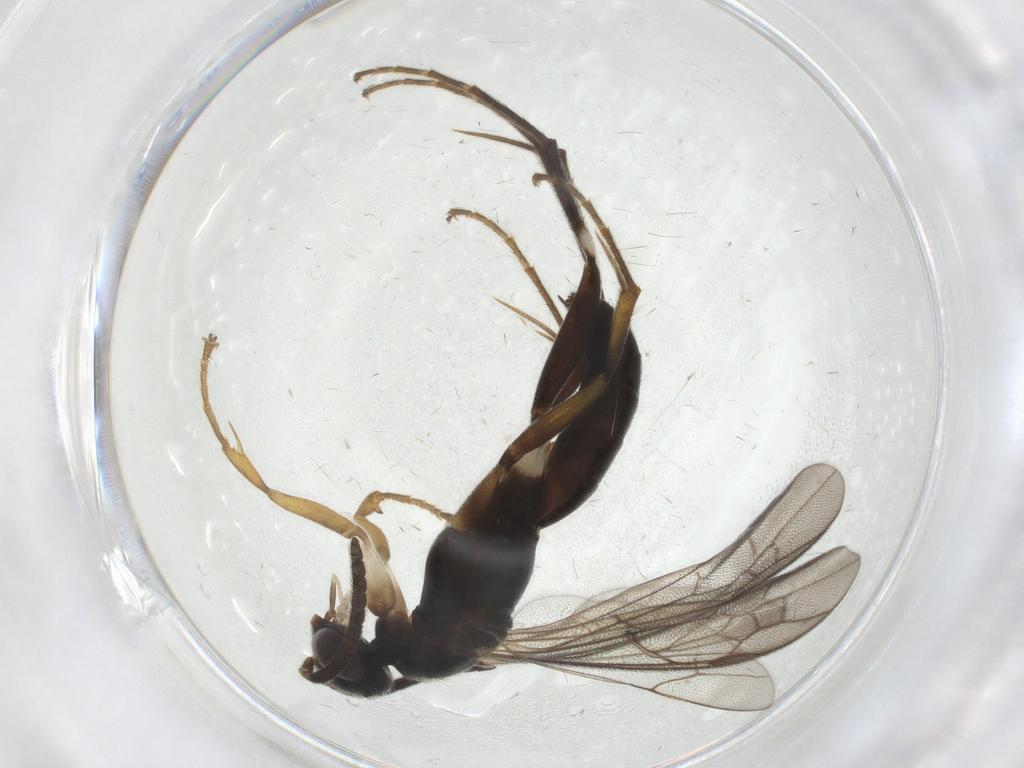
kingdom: Animalia
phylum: Arthropoda
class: Insecta
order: Hymenoptera
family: Pompilidae
